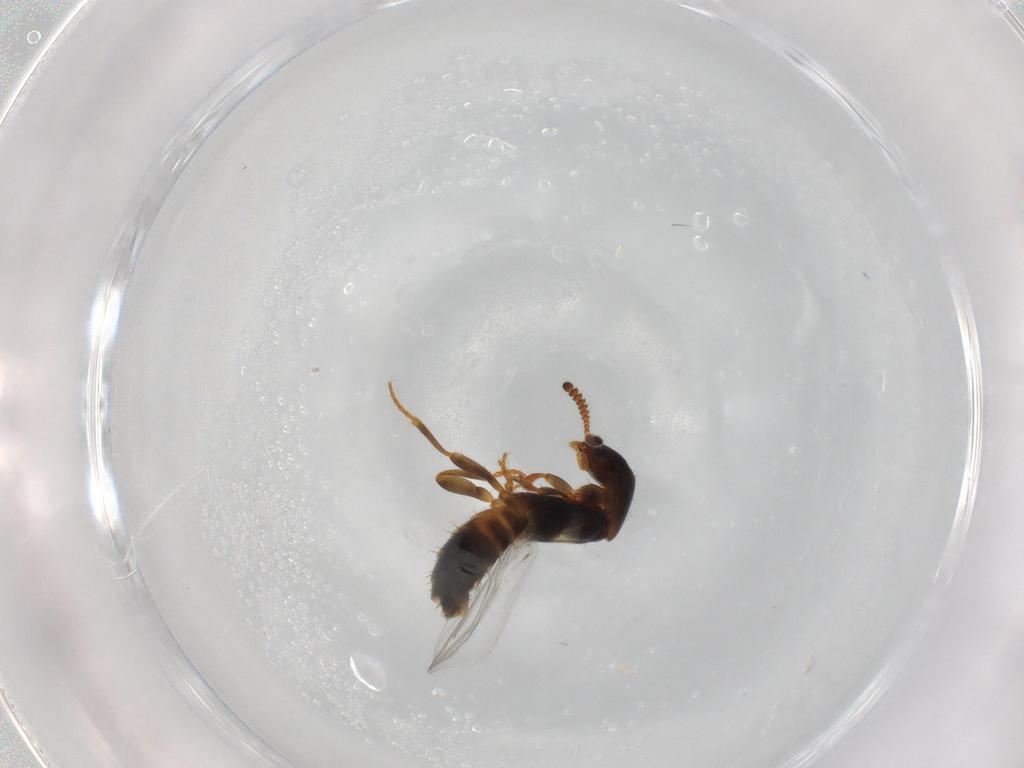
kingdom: Animalia
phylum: Arthropoda
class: Insecta
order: Coleoptera
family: Staphylinidae
